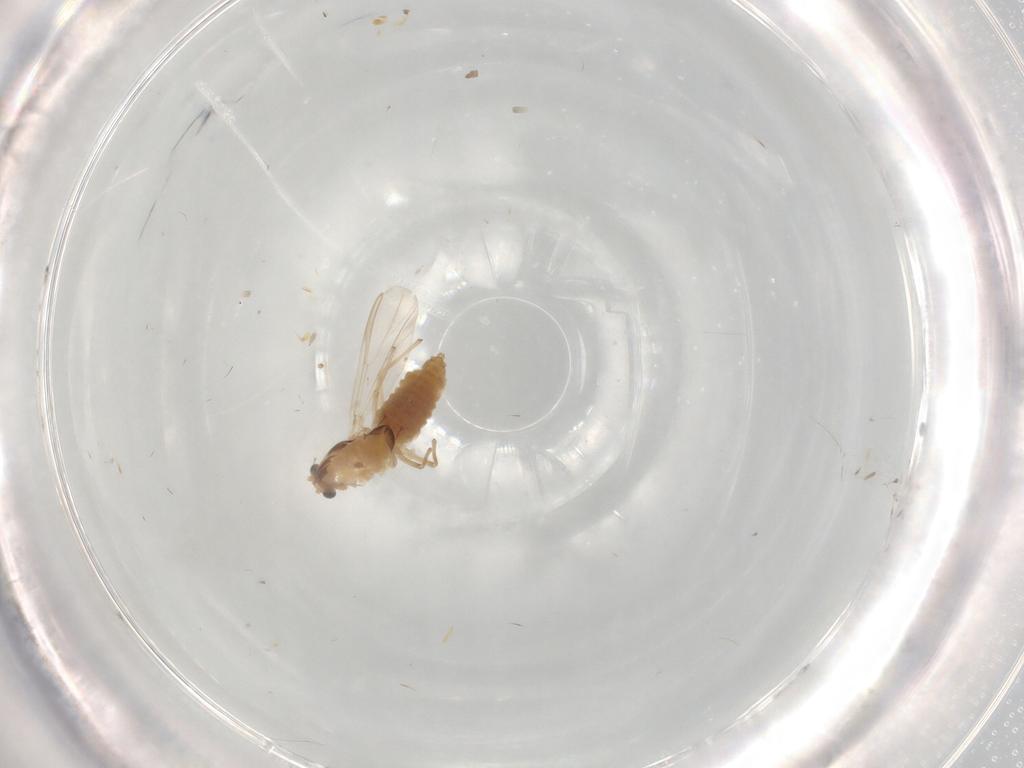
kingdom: Animalia
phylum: Arthropoda
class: Insecta
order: Diptera
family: Chironomidae
